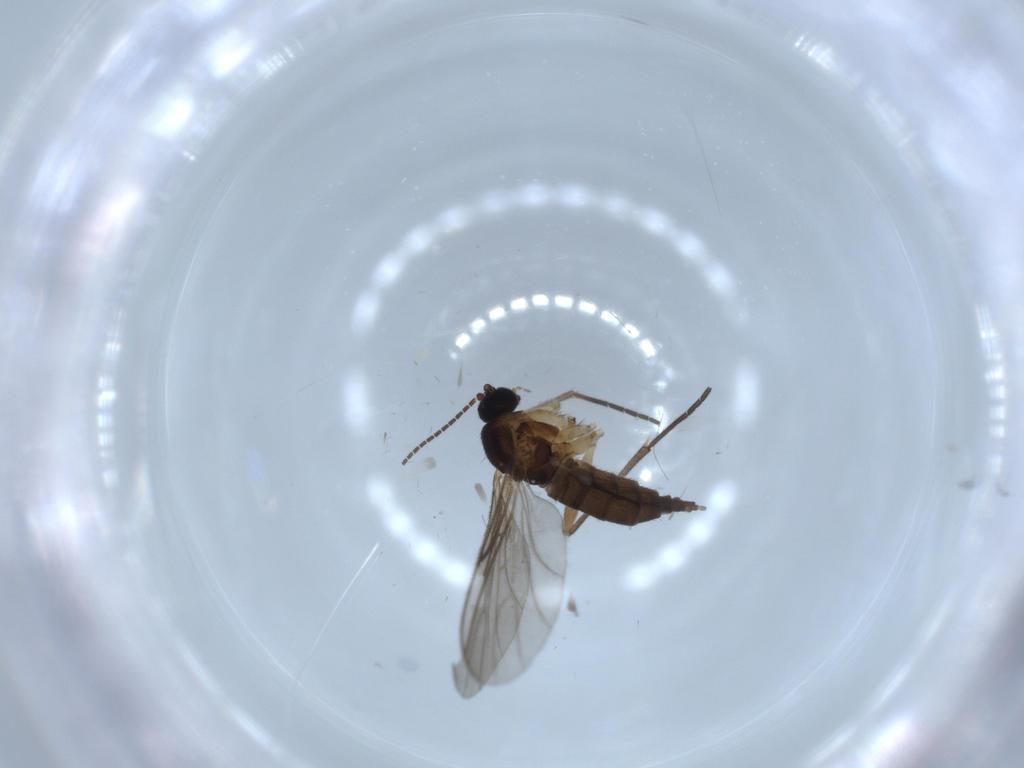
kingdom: Animalia
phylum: Arthropoda
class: Insecta
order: Diptera
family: Sciaridae
